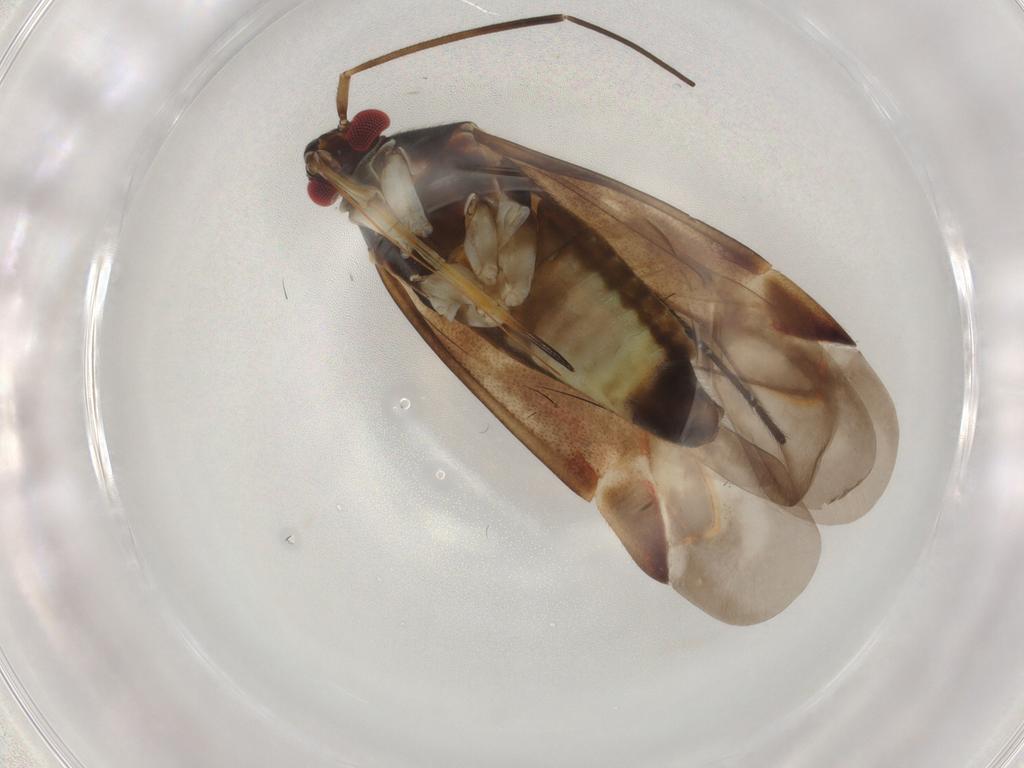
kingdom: Animalia
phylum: Arthropoda
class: Insecta
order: Hemiptera
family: Miridae
